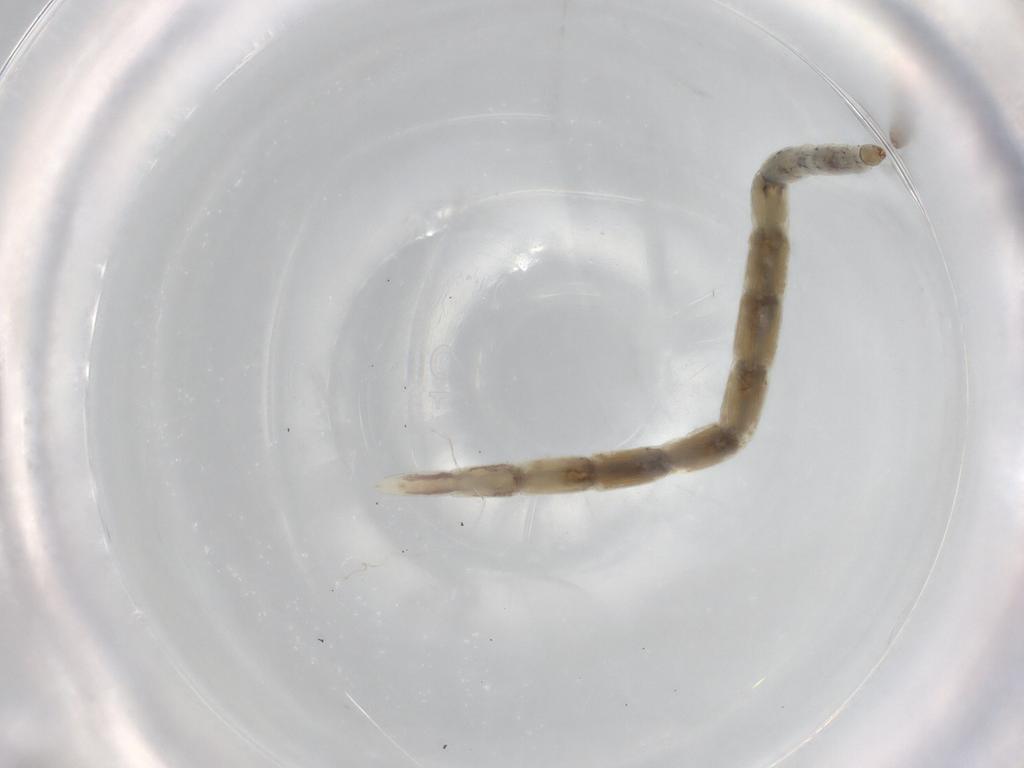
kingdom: Animalia
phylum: Arthropoda
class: Insecta
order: Diptera
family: Ceratopogonidae
